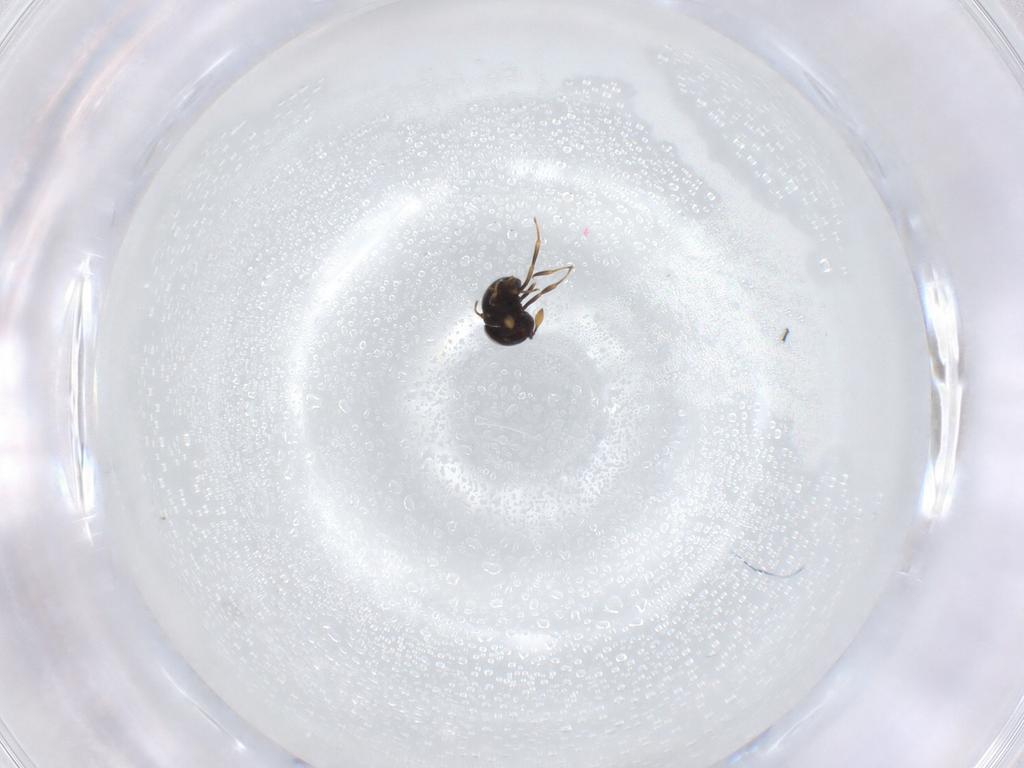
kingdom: Animalia
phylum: Arthropoda
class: Insecta
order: Hymenoptera
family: Scelionidae
